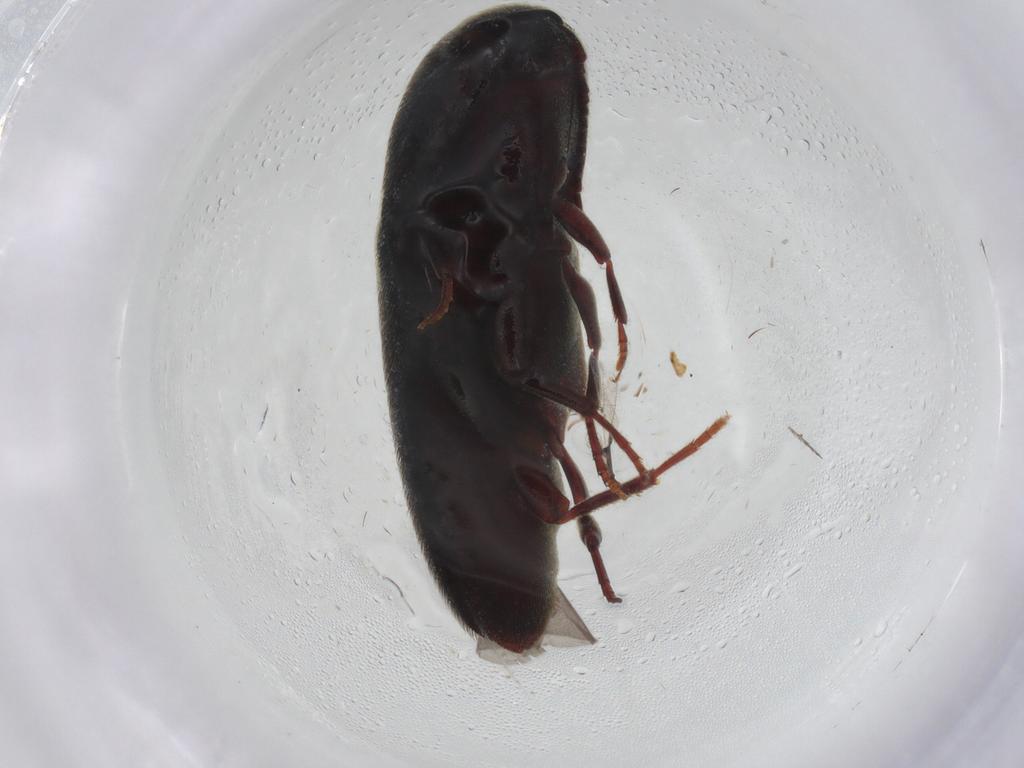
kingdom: Animalia
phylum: Arthropoda
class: Insecta
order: Coleoptera
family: Eucnemidae
